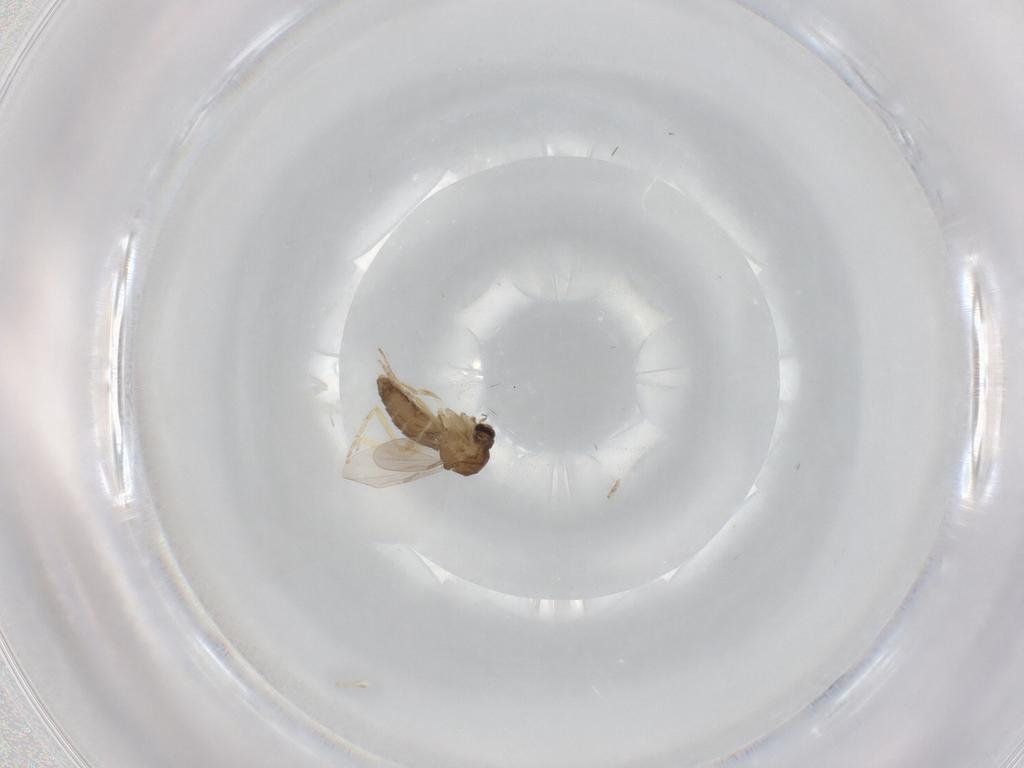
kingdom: Animalia
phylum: Arthropoda
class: Insecta
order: Diptera
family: Ceratopogonidae
